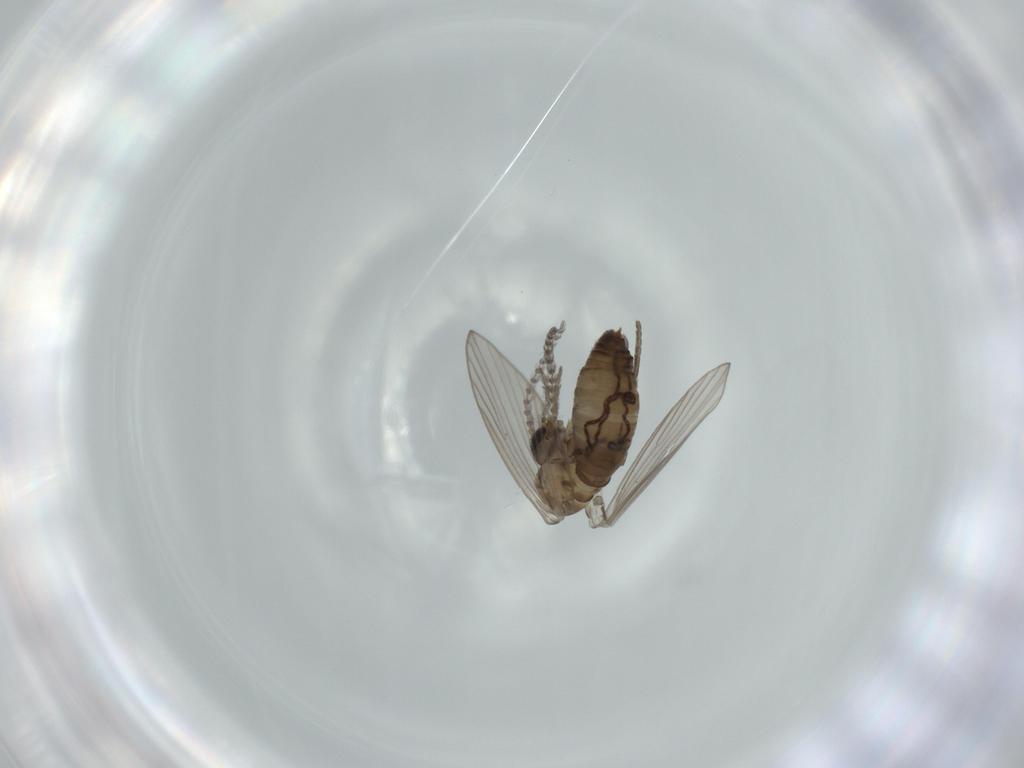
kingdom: Animalia
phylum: Arthropoda
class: Insecta
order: Diptera
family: Psychodidae
